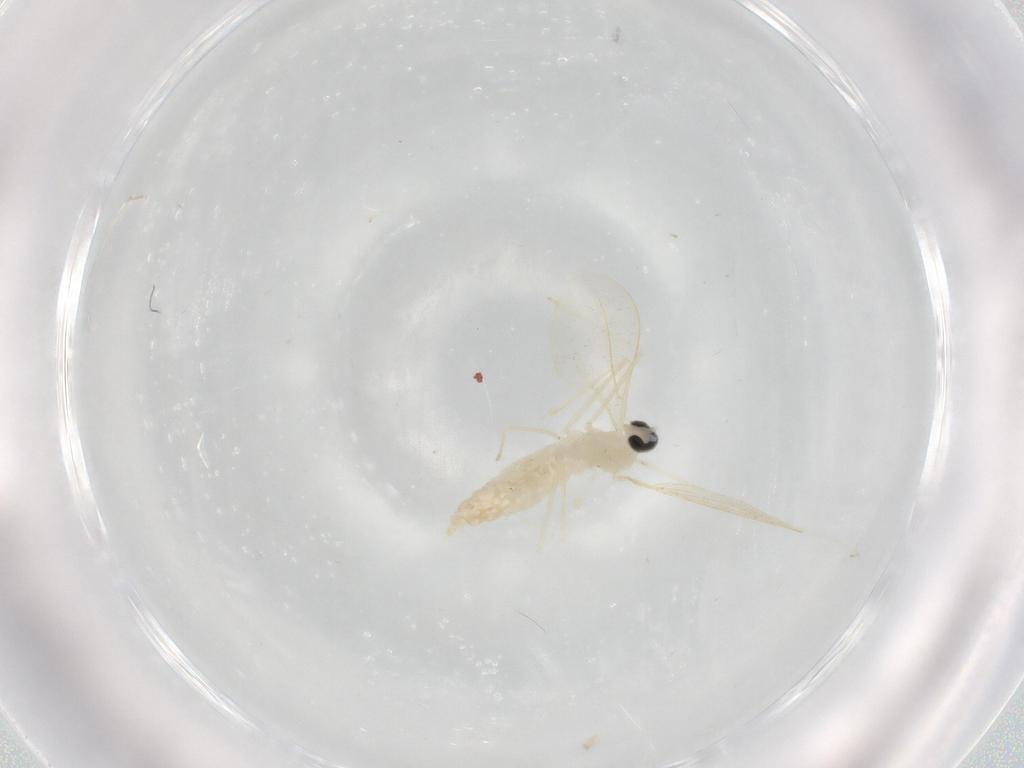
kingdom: Animalia
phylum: Arthropoda
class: Insecta
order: Diptera
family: Cecidomyiidae
